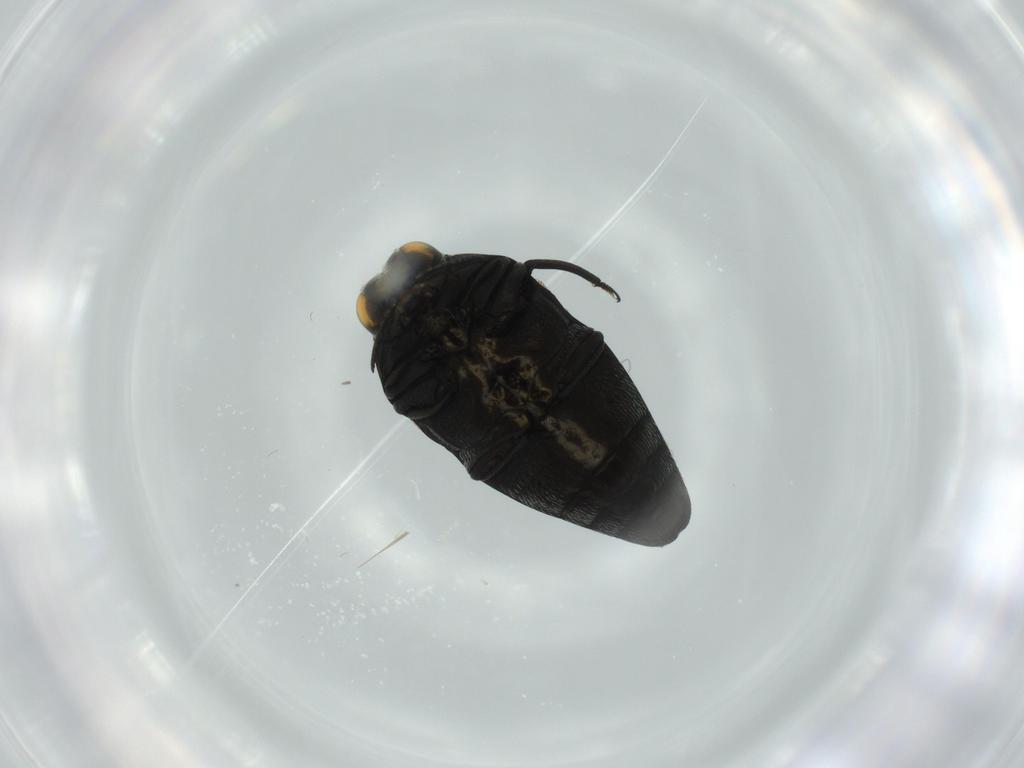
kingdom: Animalia
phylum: Arthropoda
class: Insecta
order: Coleoptera
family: Buprestidae
